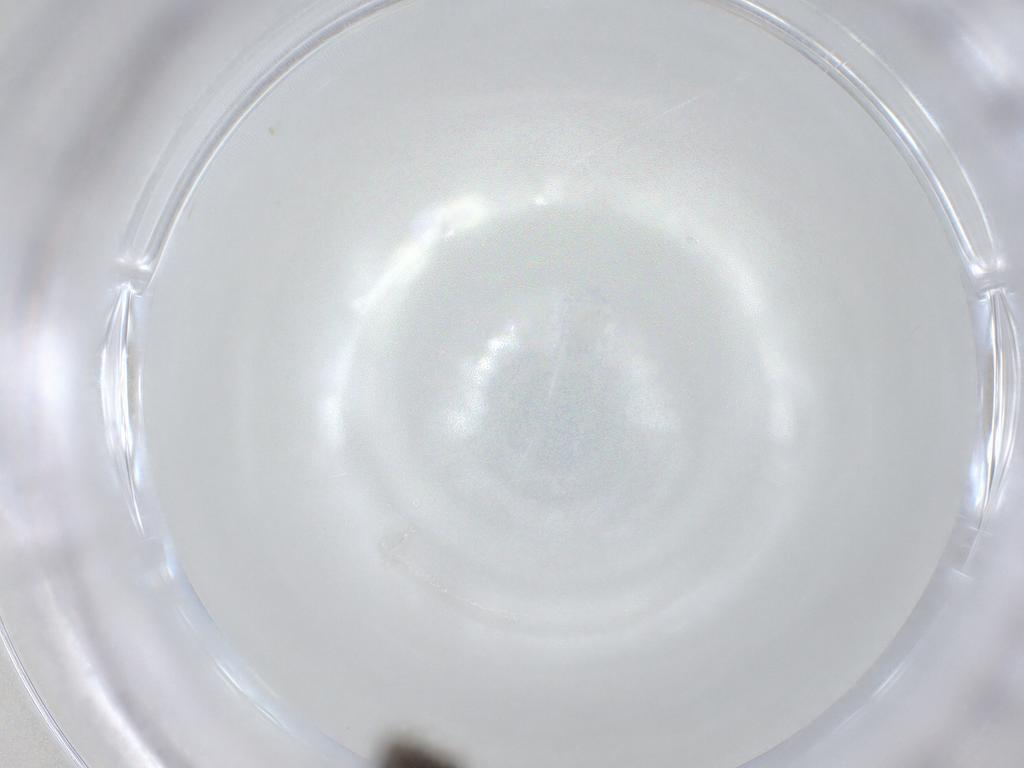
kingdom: Animalia
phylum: Arthropoda
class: Insecta
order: Diptera
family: Sciaridae
